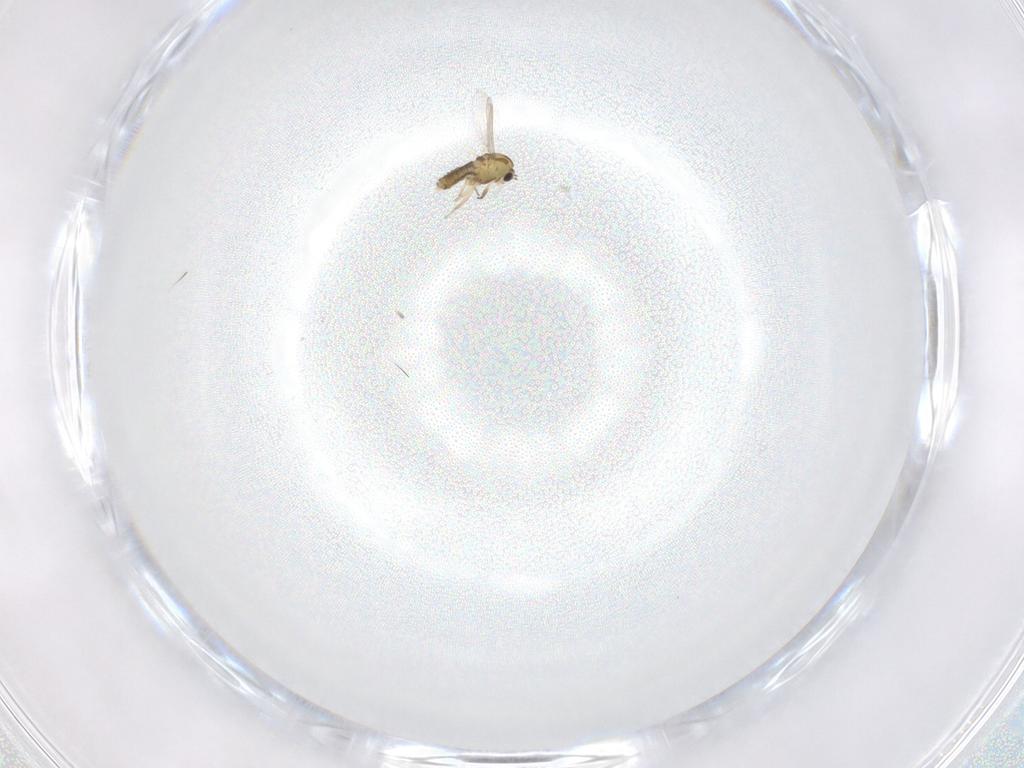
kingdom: Animalia
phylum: Arthropoda
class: Insecta
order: Diptera
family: Chironomidae
